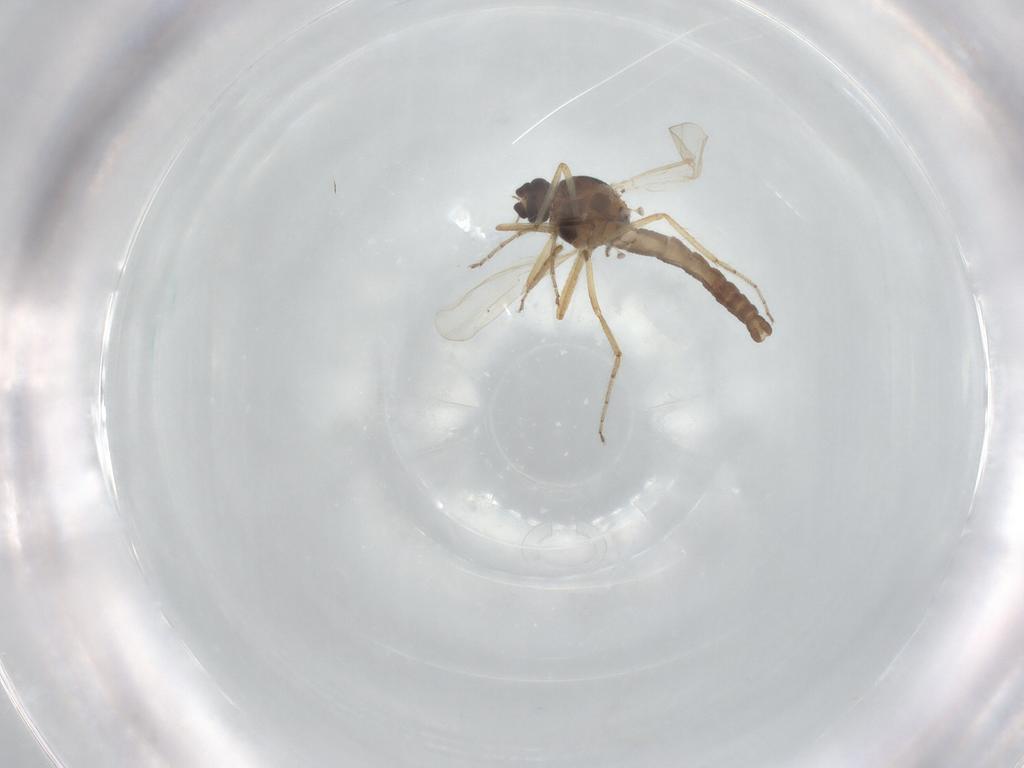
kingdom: Animalia
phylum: Arthropoda
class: Insecta
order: Diptera
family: Ceratopogonidae
